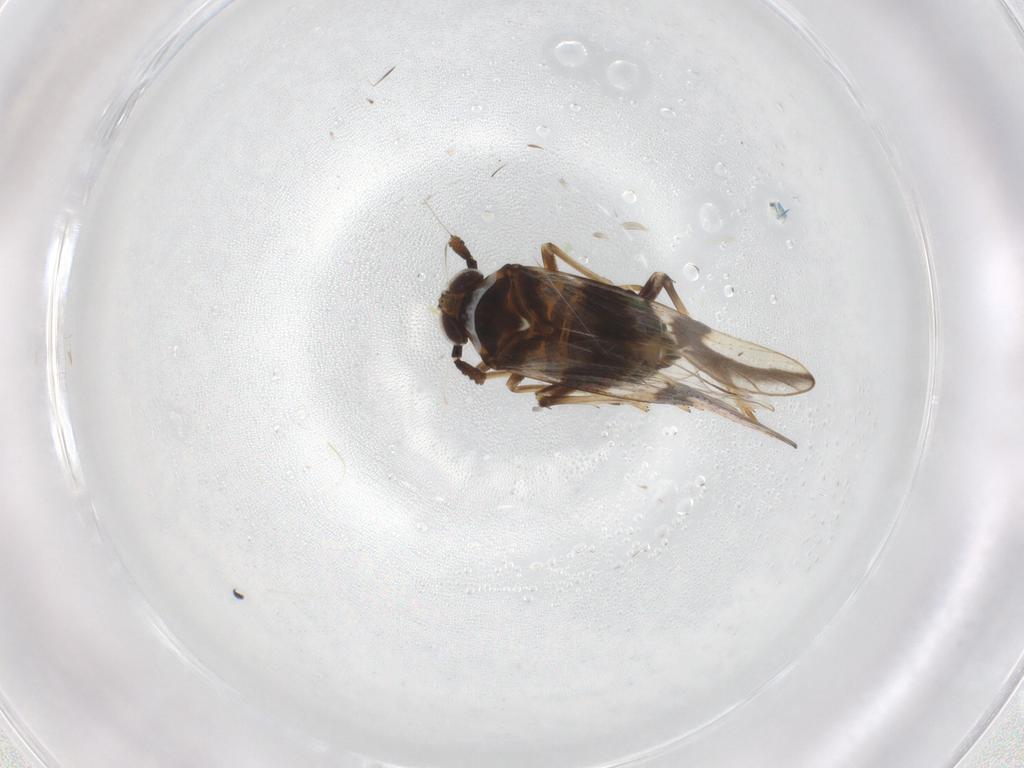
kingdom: Animalia
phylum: Arthropoda
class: Insecta
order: Hemiptera
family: Delphacidae
